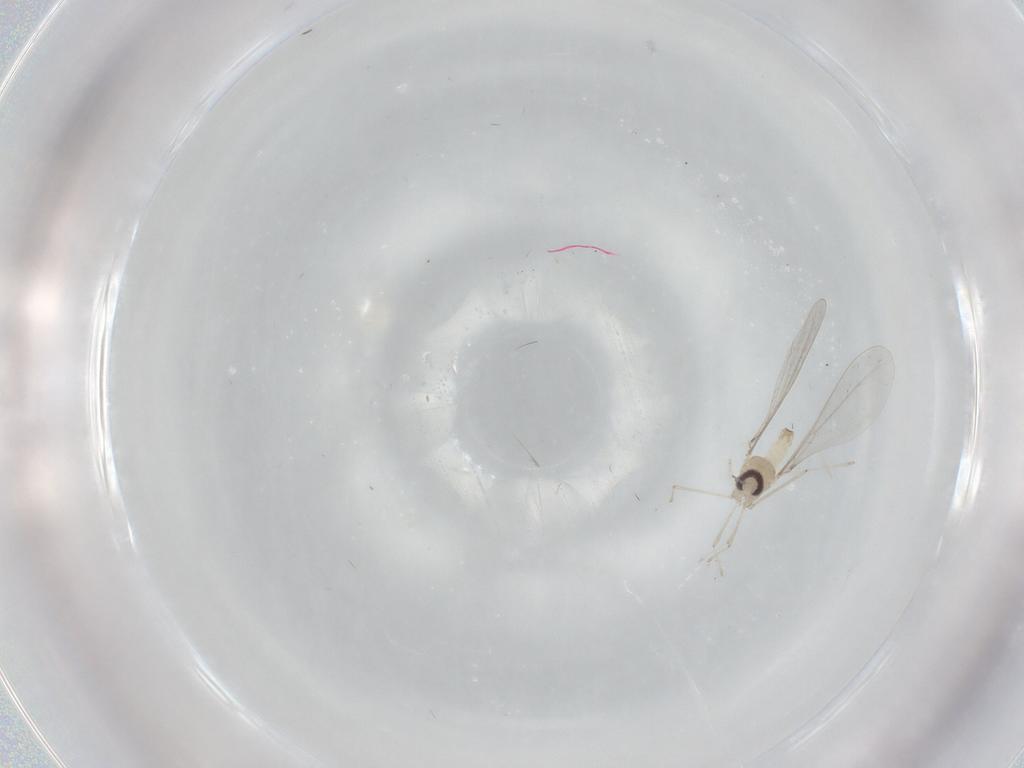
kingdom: Animalia
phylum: Arthropoda
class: Insecta
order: Diptera
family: Cecidomyiidae
